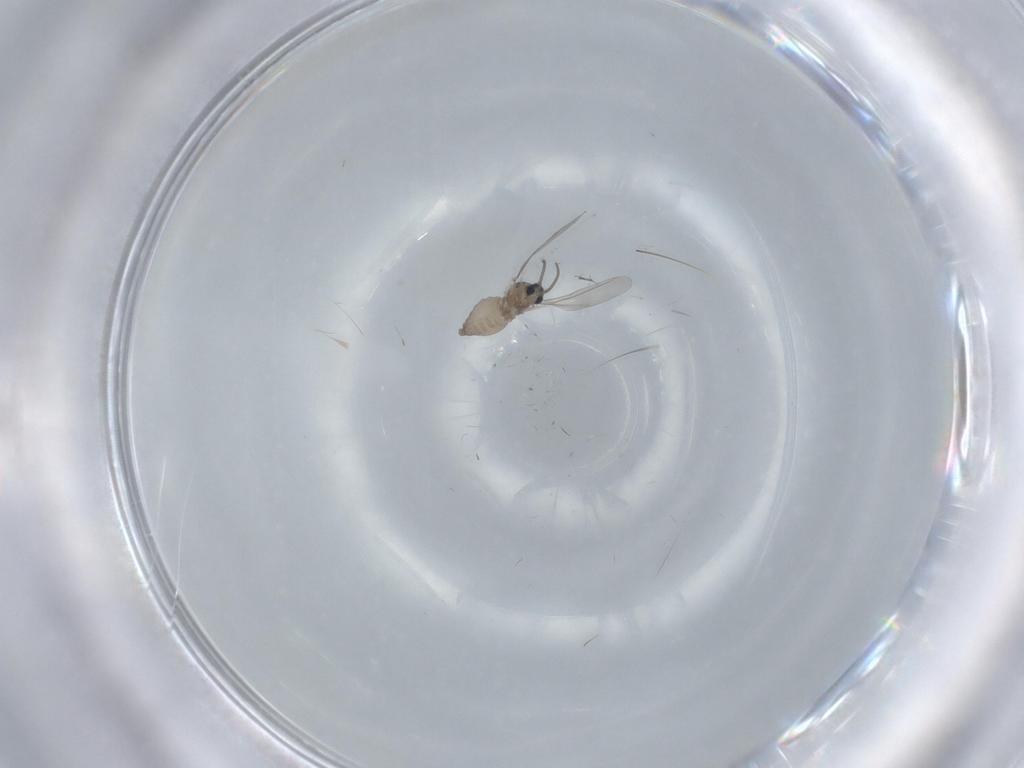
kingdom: Animalia
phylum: Arthropoda
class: Insecta
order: Diptera
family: Cecidomyiidae
